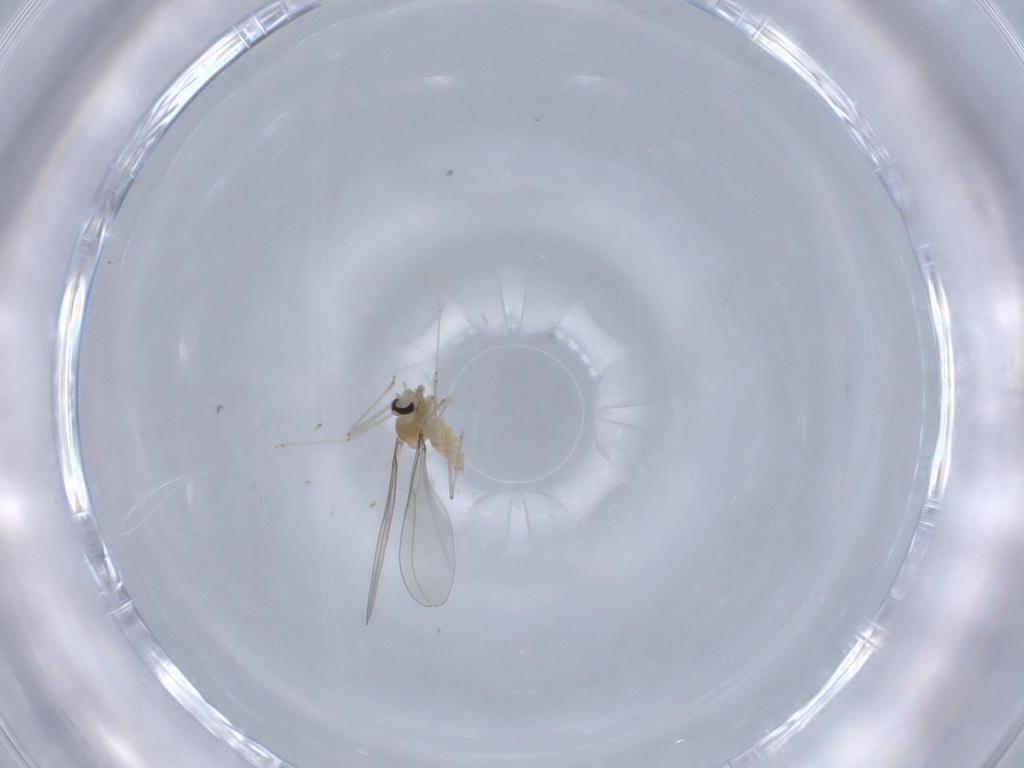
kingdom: Animalia
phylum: Arthropoda
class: Insecta
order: Diptera
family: Cecidomyiidae
